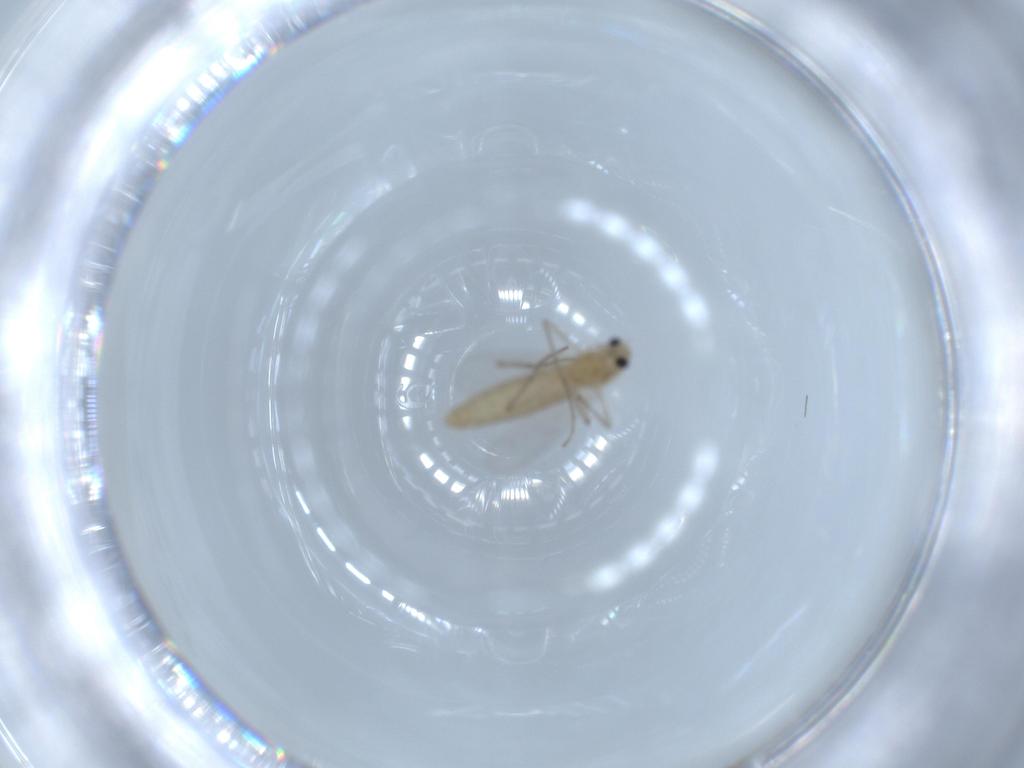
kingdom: Animalia
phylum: Arthropoda
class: Insecta
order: Diptera
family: Chironomidae
